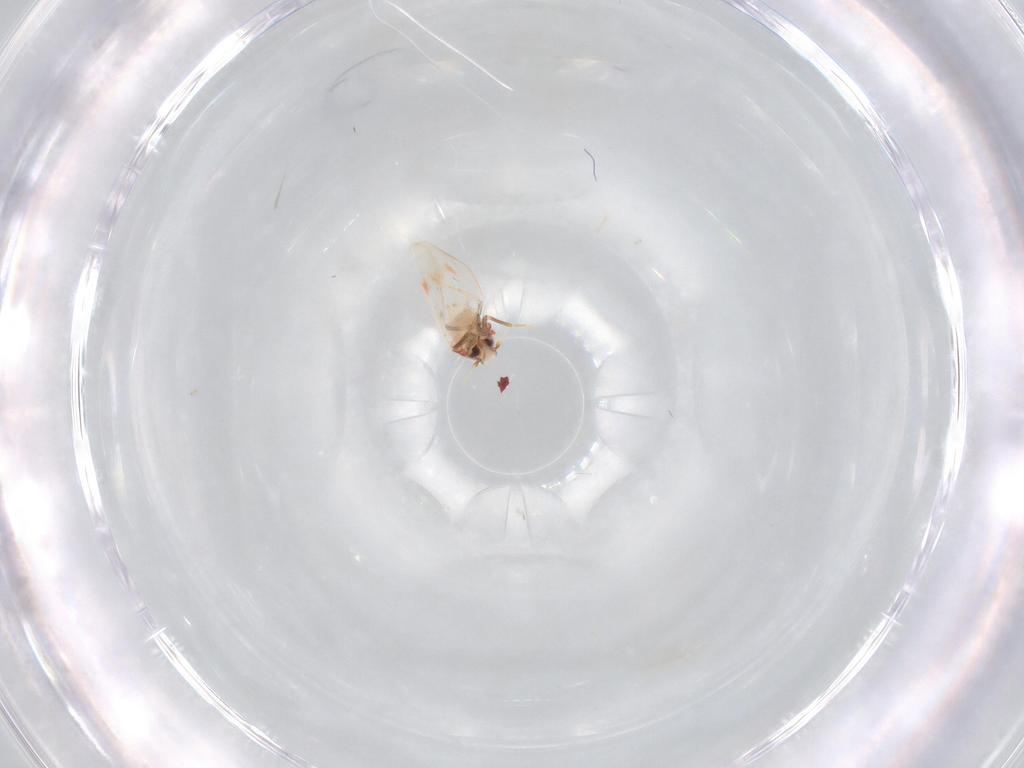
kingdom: Animalia
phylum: Arthropoda
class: Insecta
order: Hemiptera
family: Aleyrodidae
